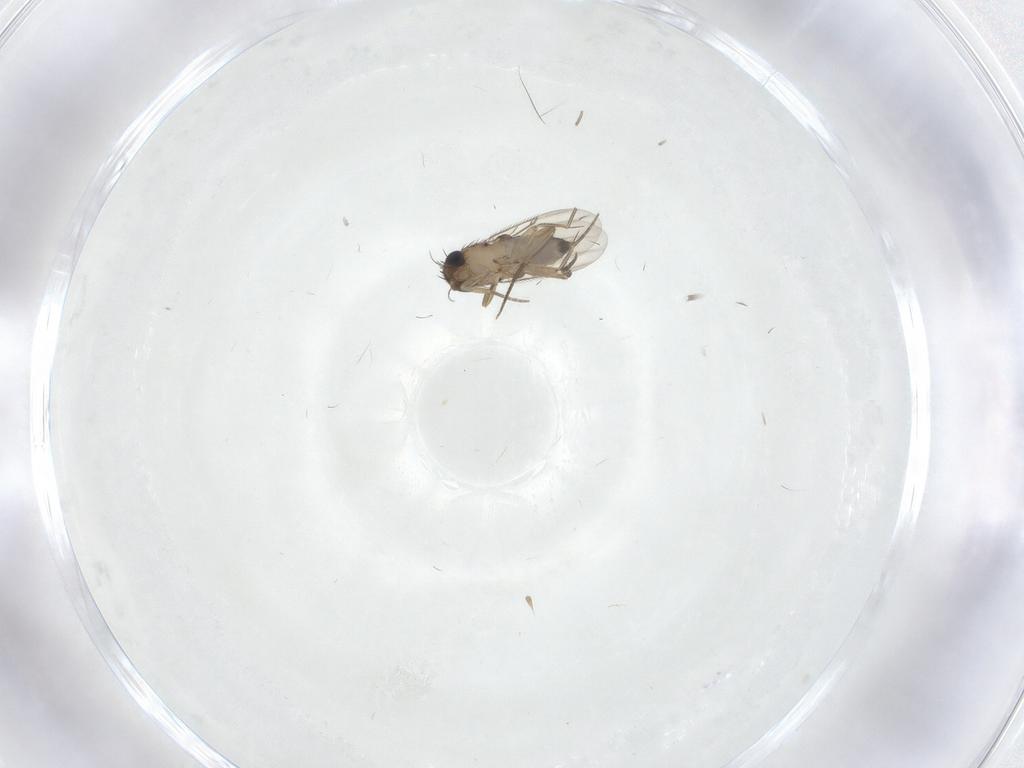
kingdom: Animalia
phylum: Arthropoda
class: Insecta
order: Diptera
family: Phoridae
